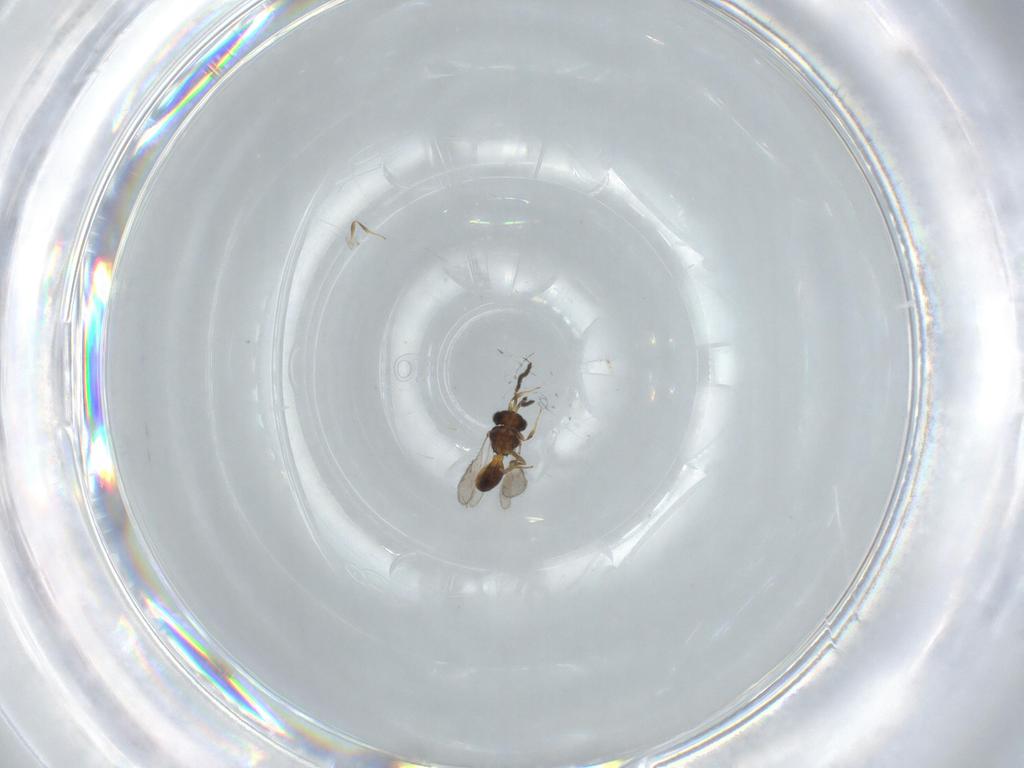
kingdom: Animalia
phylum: Arthropoda
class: Insecta
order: Hymenoptera
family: Scelionidae
